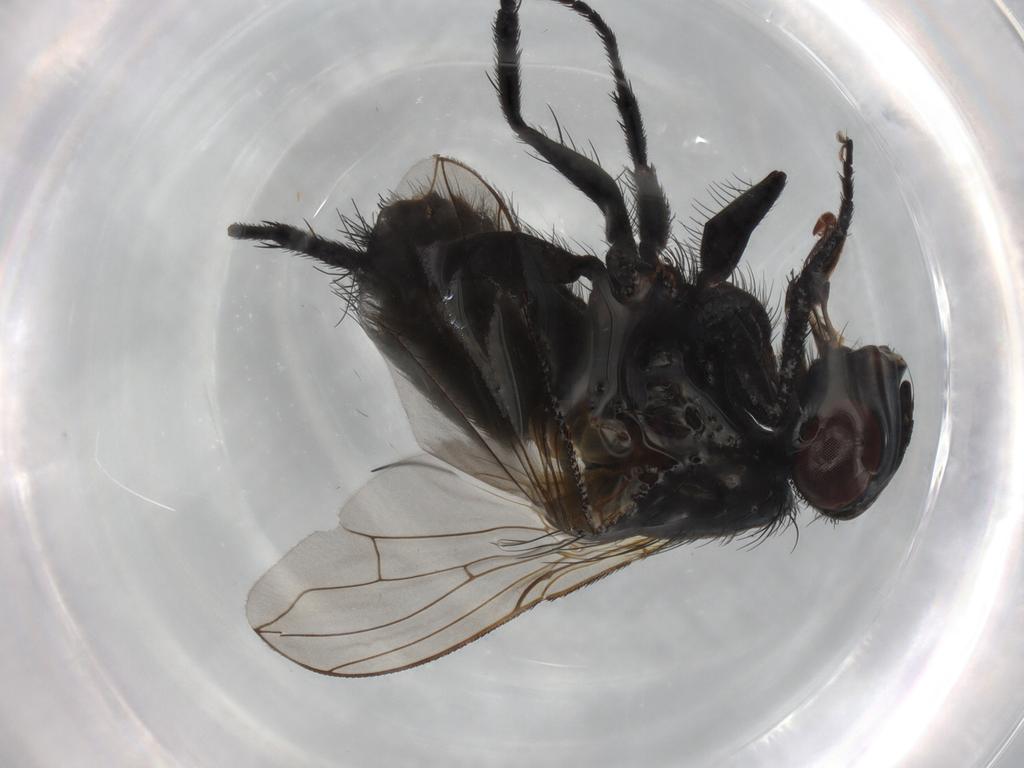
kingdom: Animalia
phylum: Arthropoda
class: Insecta
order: Diptera
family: Calliphoridae
